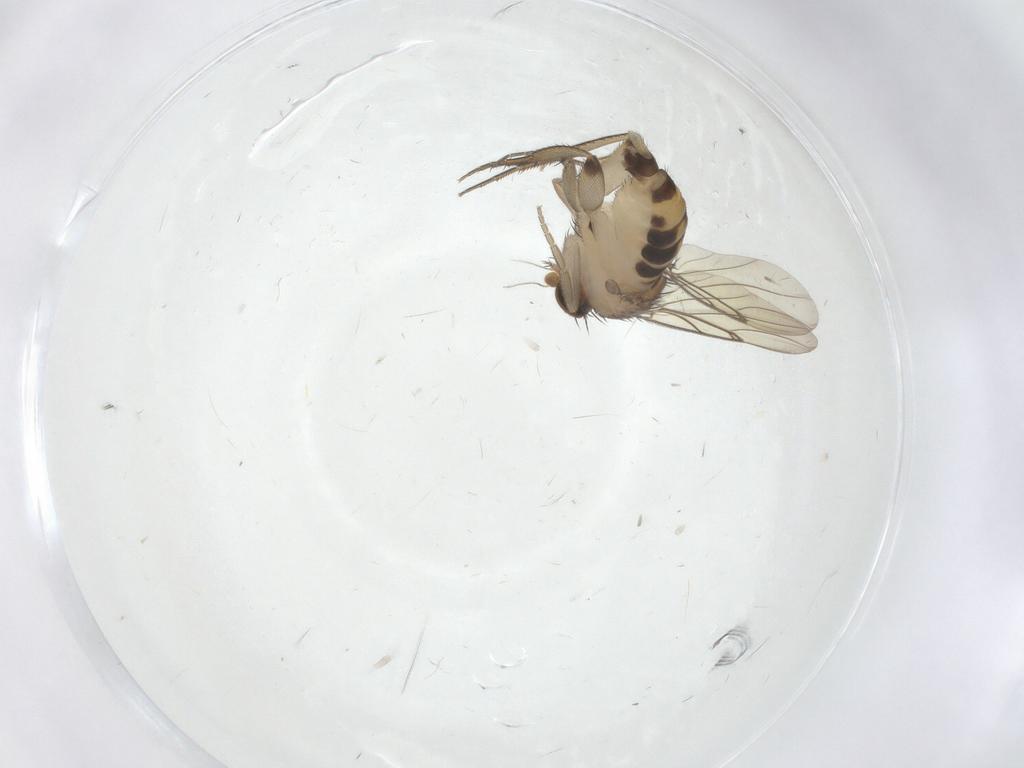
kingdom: Animalia
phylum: Arthropoda
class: Insecta
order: Diptera
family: Phoridae
